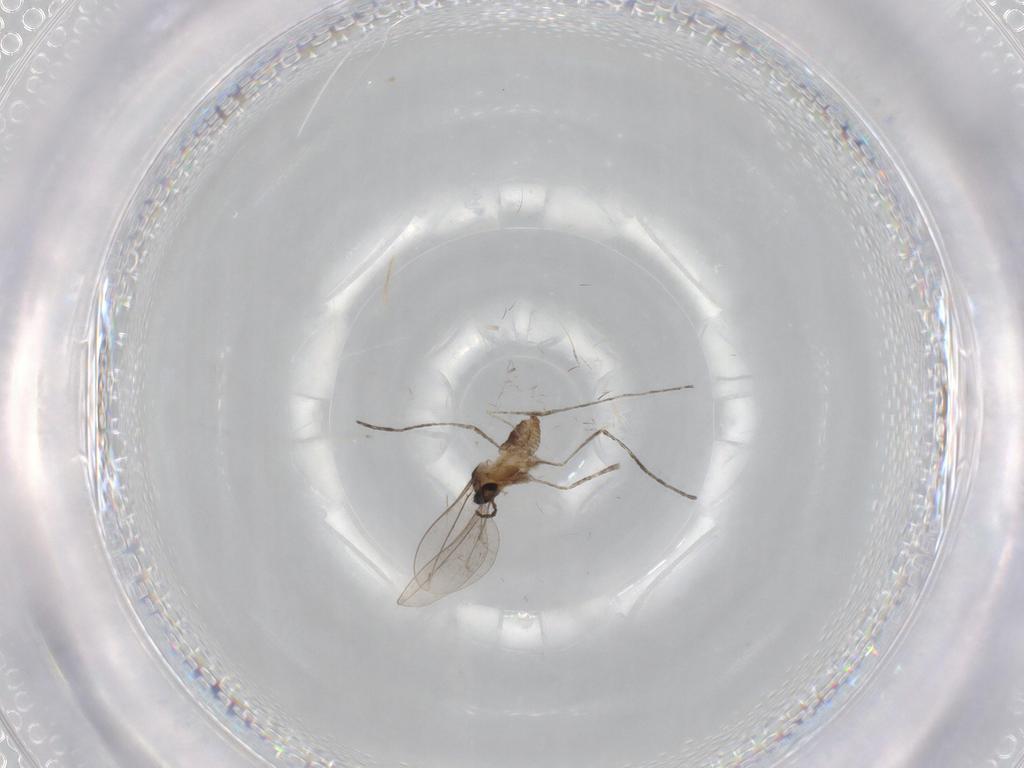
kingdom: Animalia
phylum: Arthropoda
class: Insecta
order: Diptera
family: Cecidomyiidae
